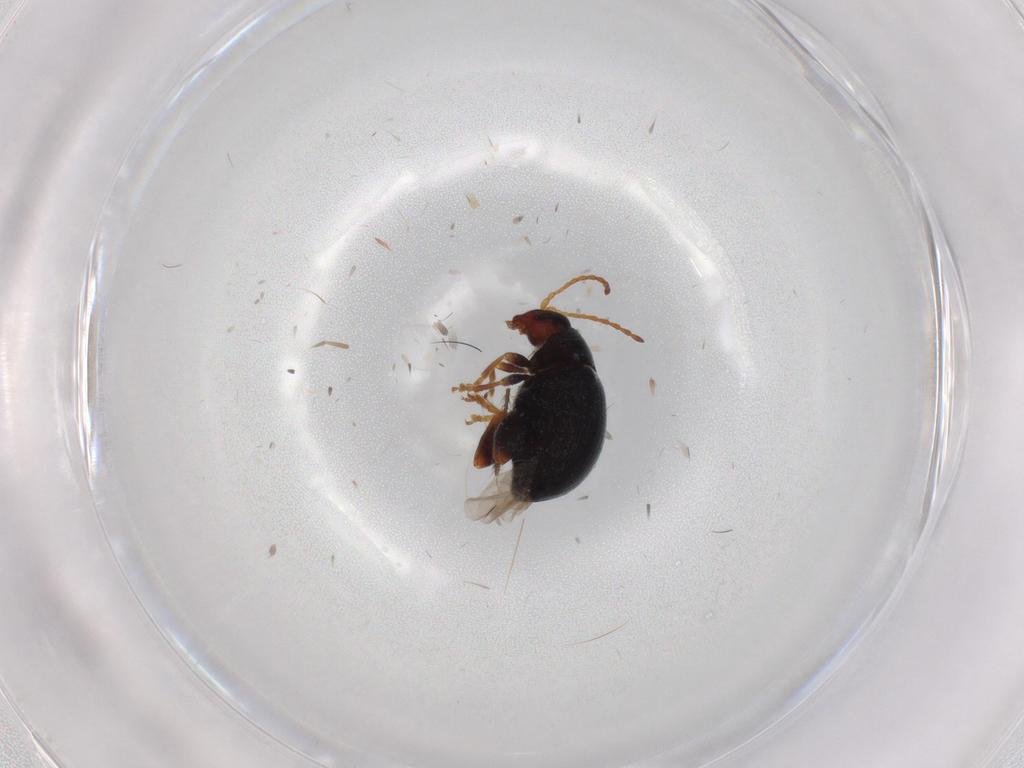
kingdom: Animalia
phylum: Arthropoda
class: Insecta
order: Coleoptera
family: Chrysomelidae
